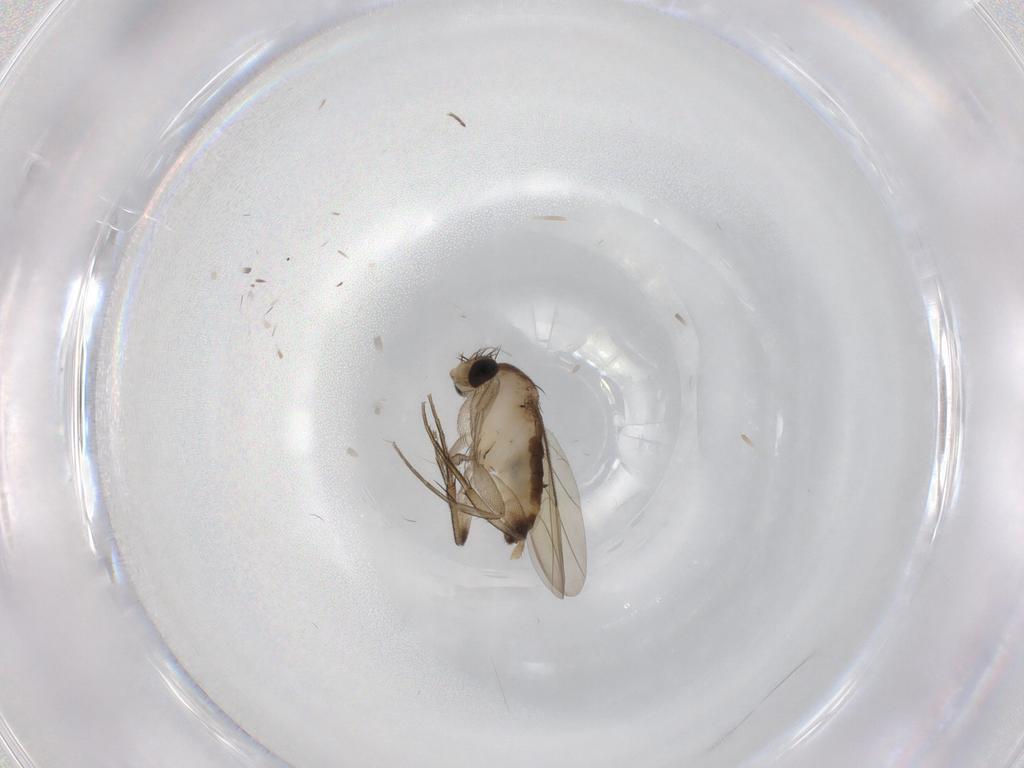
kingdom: Animalia
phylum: Arthropoda
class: Insecta
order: Diptera
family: Phoridae
